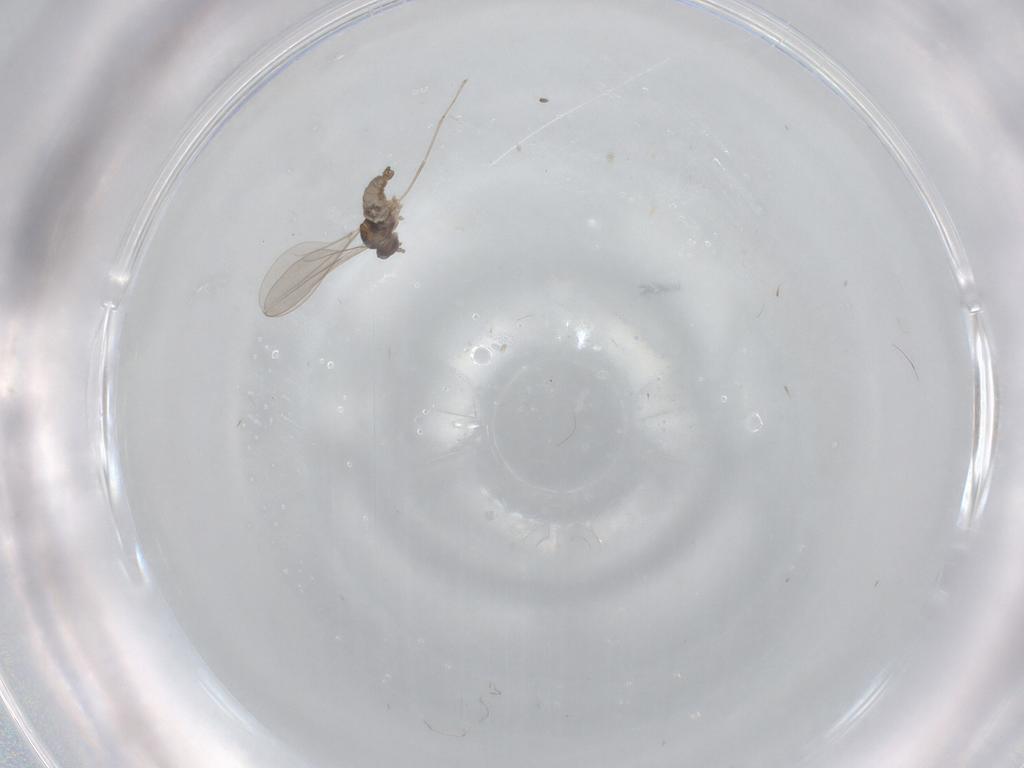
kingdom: Animalia
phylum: Arthropoda
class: Insecta
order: Diptera
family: Cecidomyiidae
